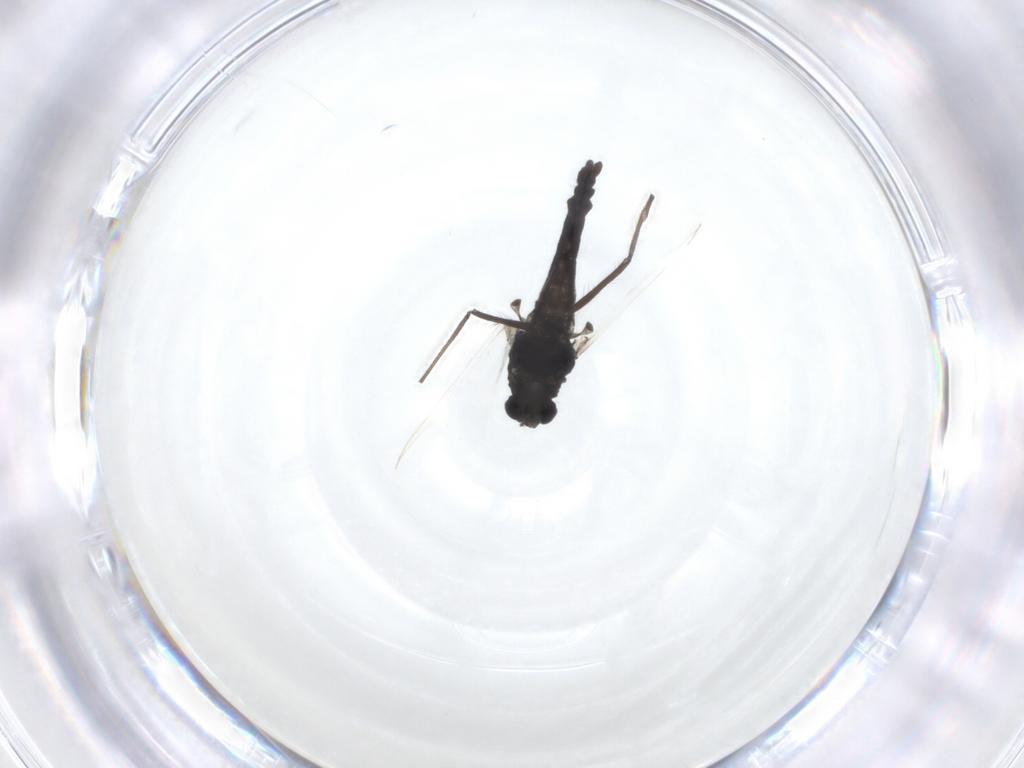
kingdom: Animalia
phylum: Arthropoda
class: Insecta
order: Diptera
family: Chironomidae
